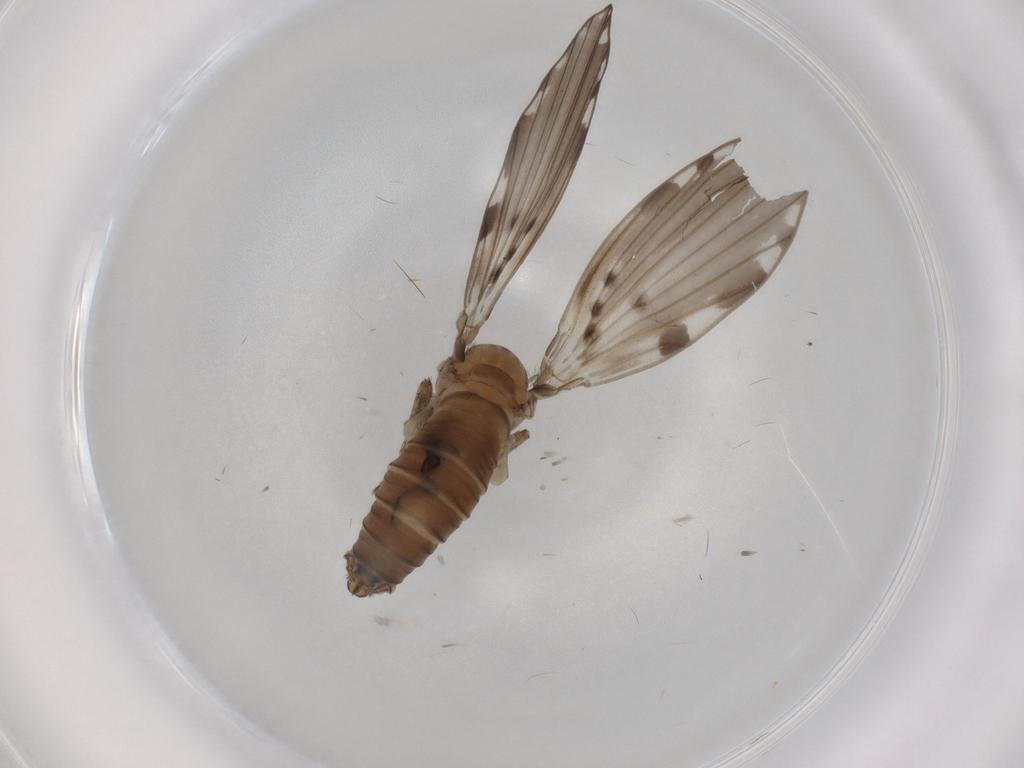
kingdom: Animalia
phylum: Arthropoda
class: Insecta
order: Diptera
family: Psychodidae
